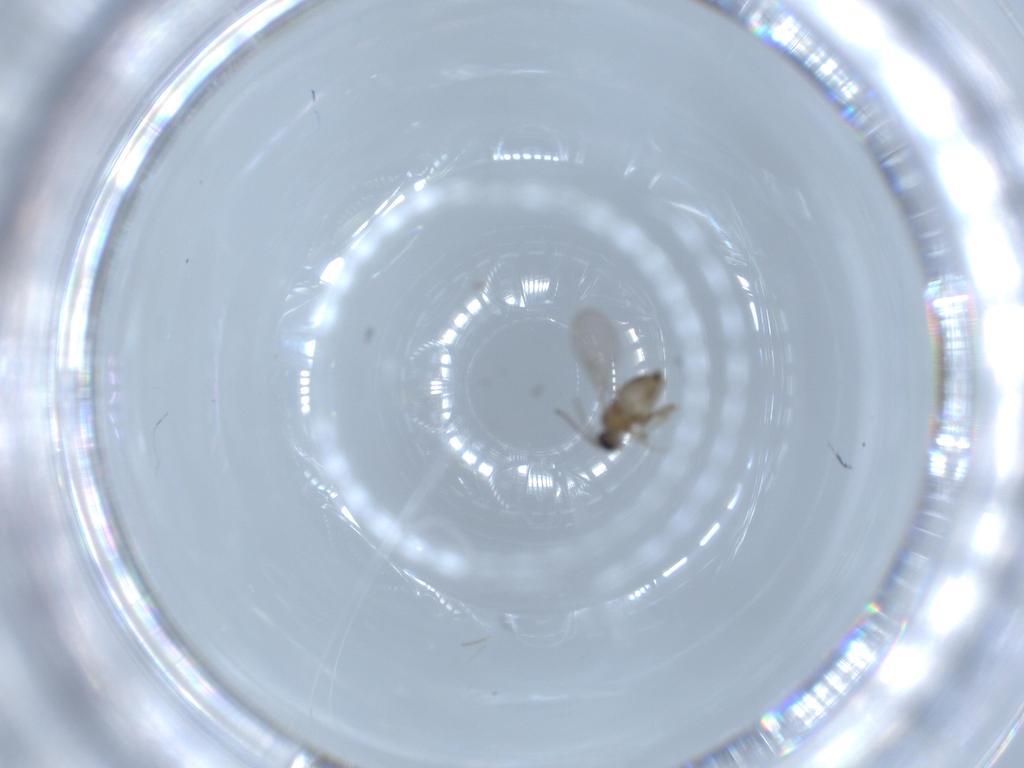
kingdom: Animalia
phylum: Arthropoda
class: Insecta
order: Diptera
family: Cecidomyiidae
